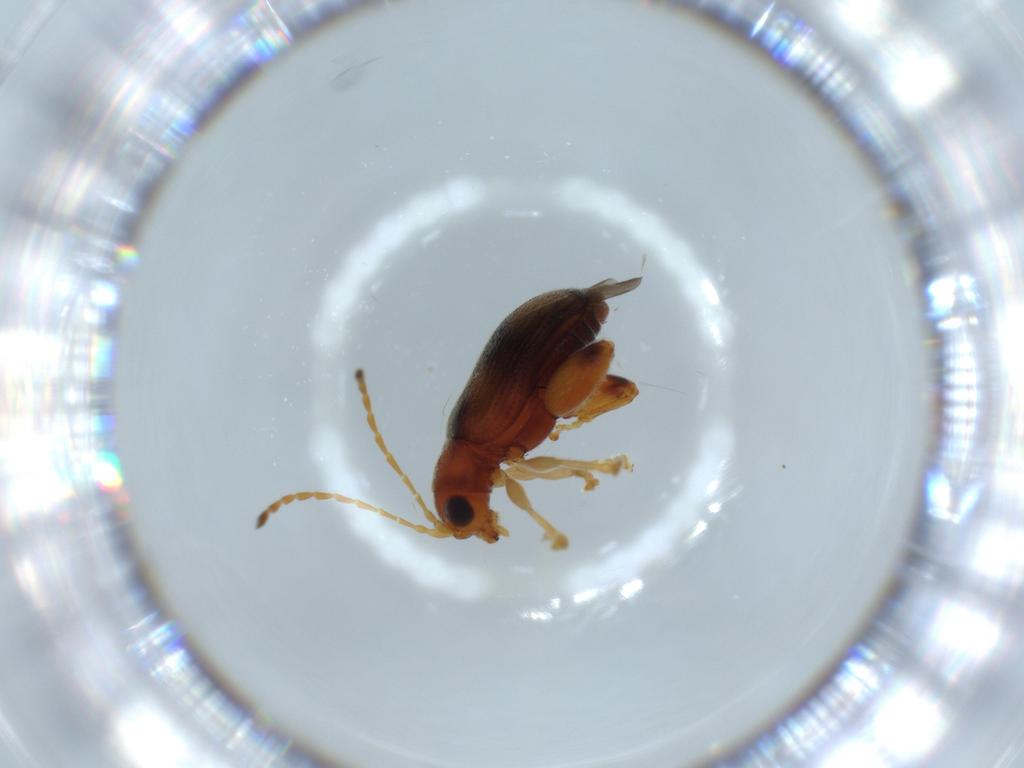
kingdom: Animalia
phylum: Arthropoda
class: Insecta
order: Coleoptera
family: Chrysomelidae
